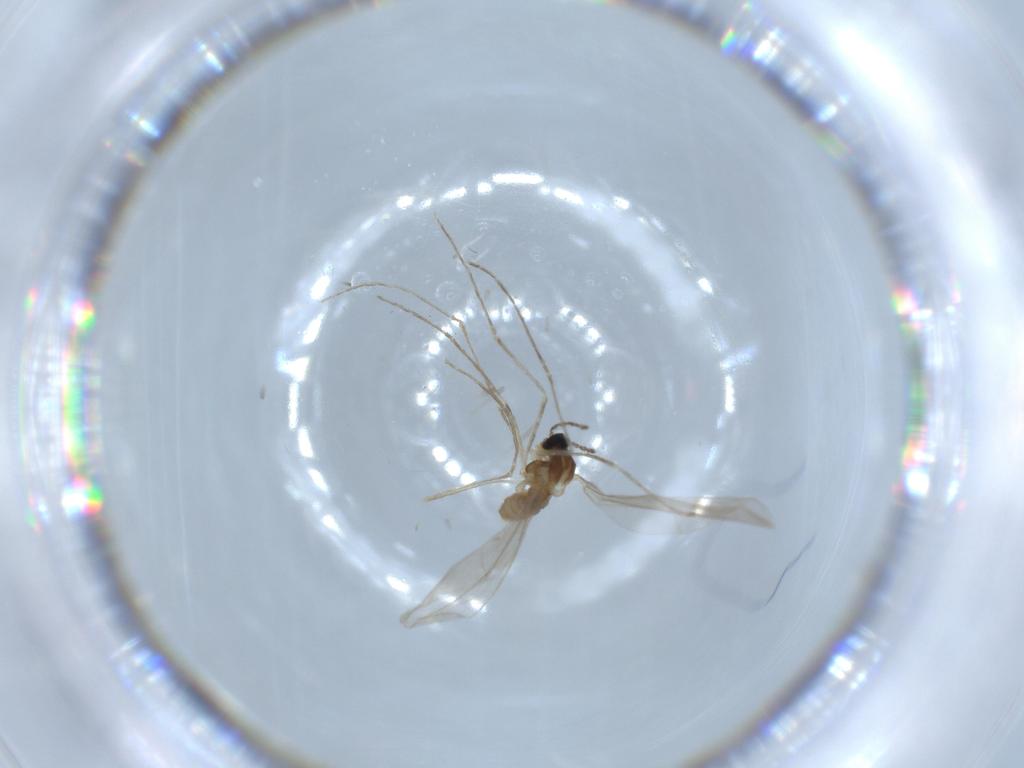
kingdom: Animalia
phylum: Arthropoda
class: Insecta
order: Diptera
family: Cecidomyiidae
